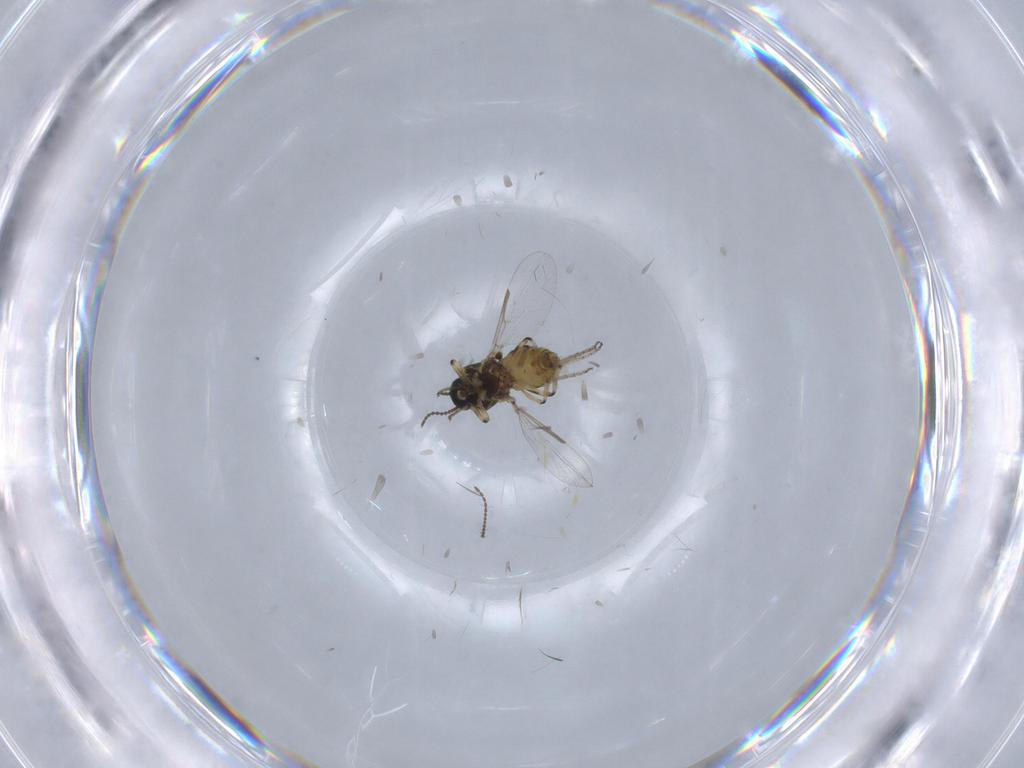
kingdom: Animalia
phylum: Arthropoda
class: Insecta
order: Diptera
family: Ceratopogonidae
